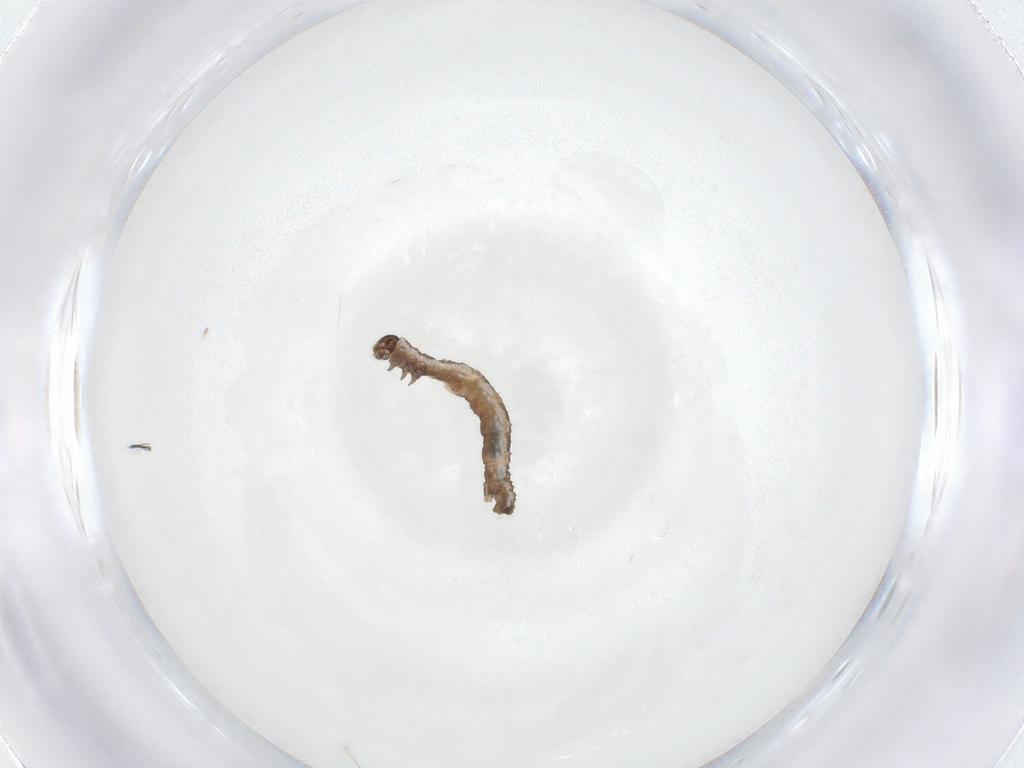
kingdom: Animalia
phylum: Arthropoda
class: Insecta
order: Lepidoptera
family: Geometridae
